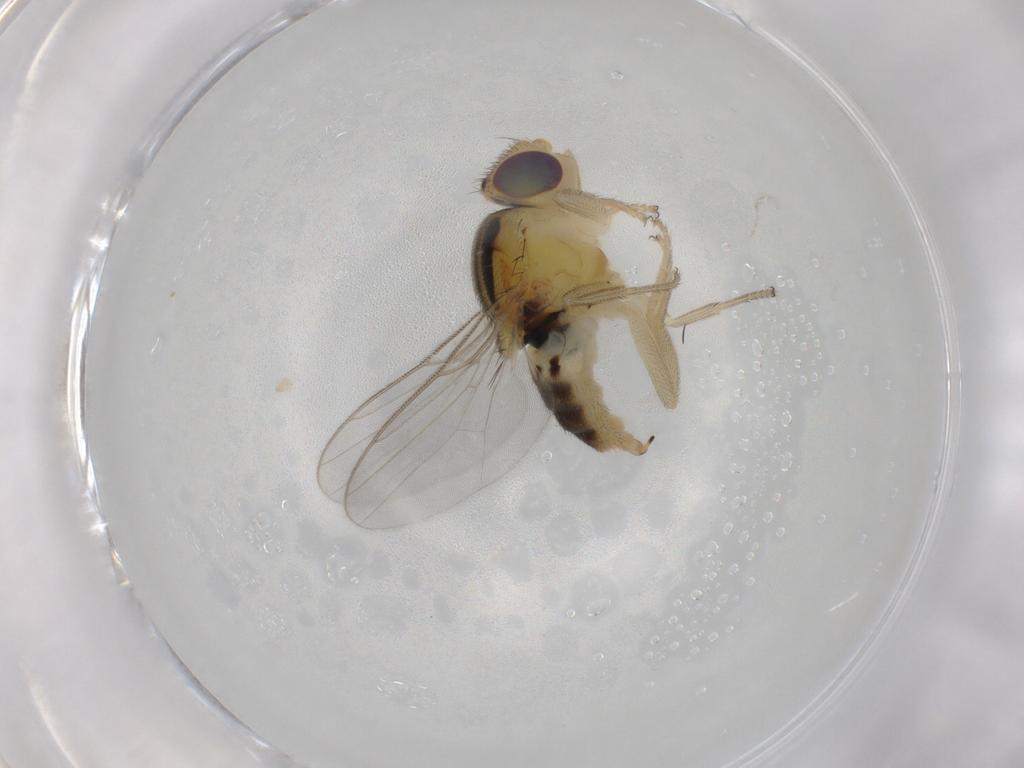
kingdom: Animalia
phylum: Arthropoda
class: Insecta
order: Diptera
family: Chloropidae
